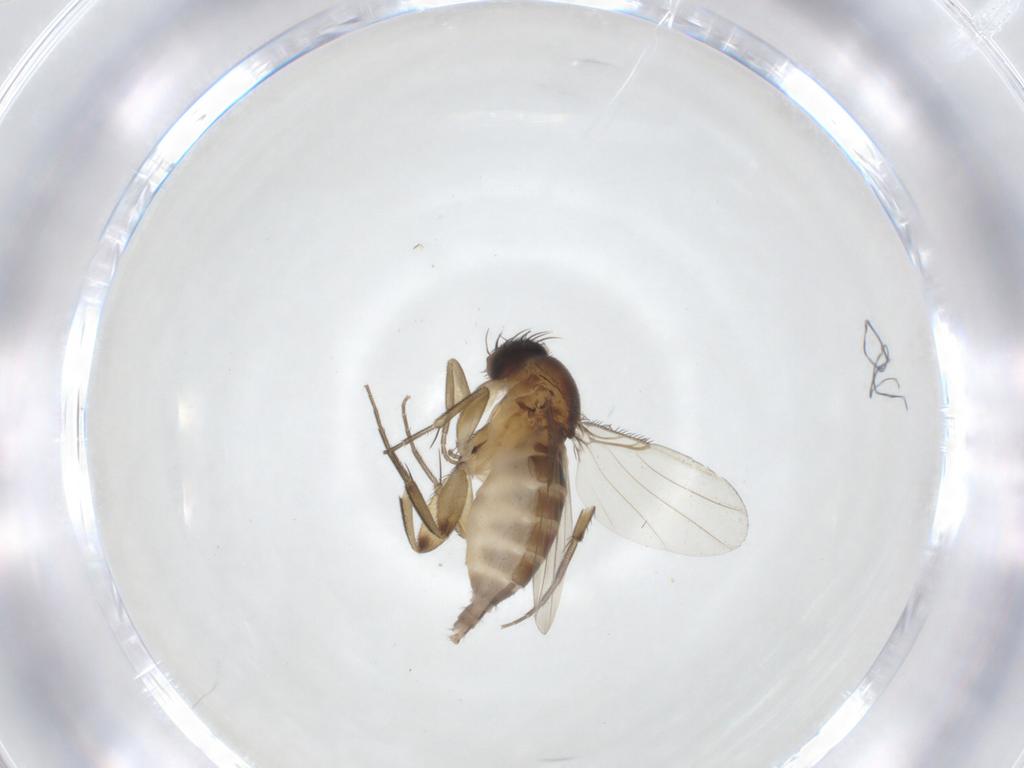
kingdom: Animalia
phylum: Arthropoda
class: Insecta
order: Diptera
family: Phoridae
